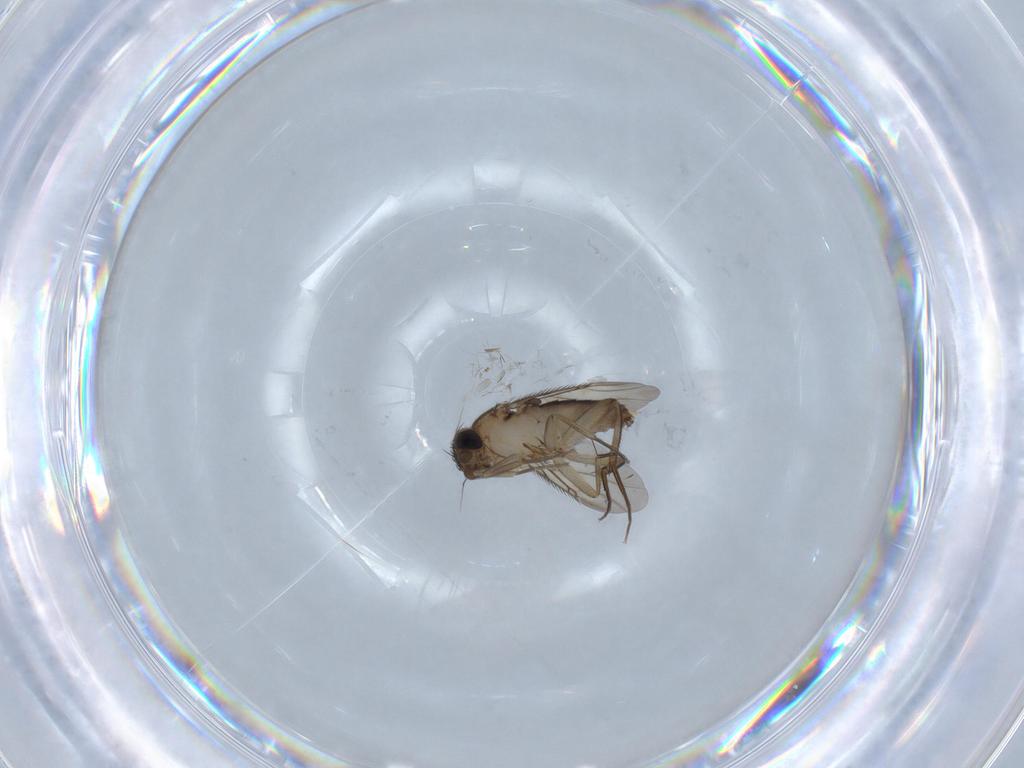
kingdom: Animalia
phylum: Arthropoda
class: Insecta
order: Diptera
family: Phoridae
